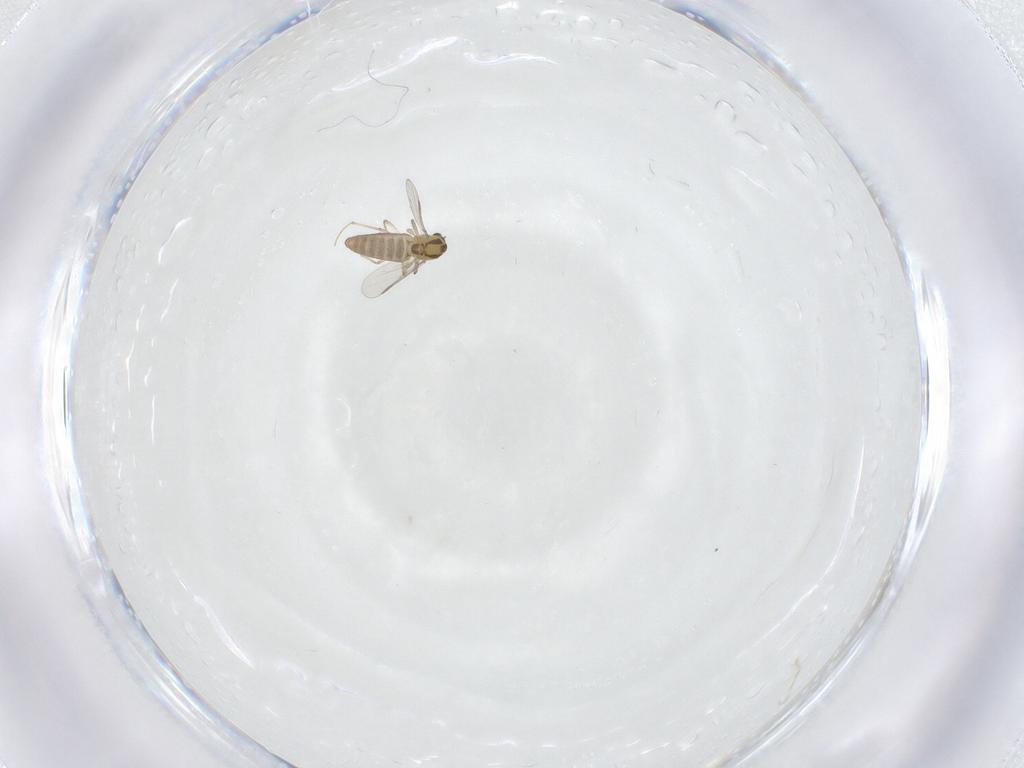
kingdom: Animalia
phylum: Arthropoda
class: Insecta
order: Diptera
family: Chironomidae
